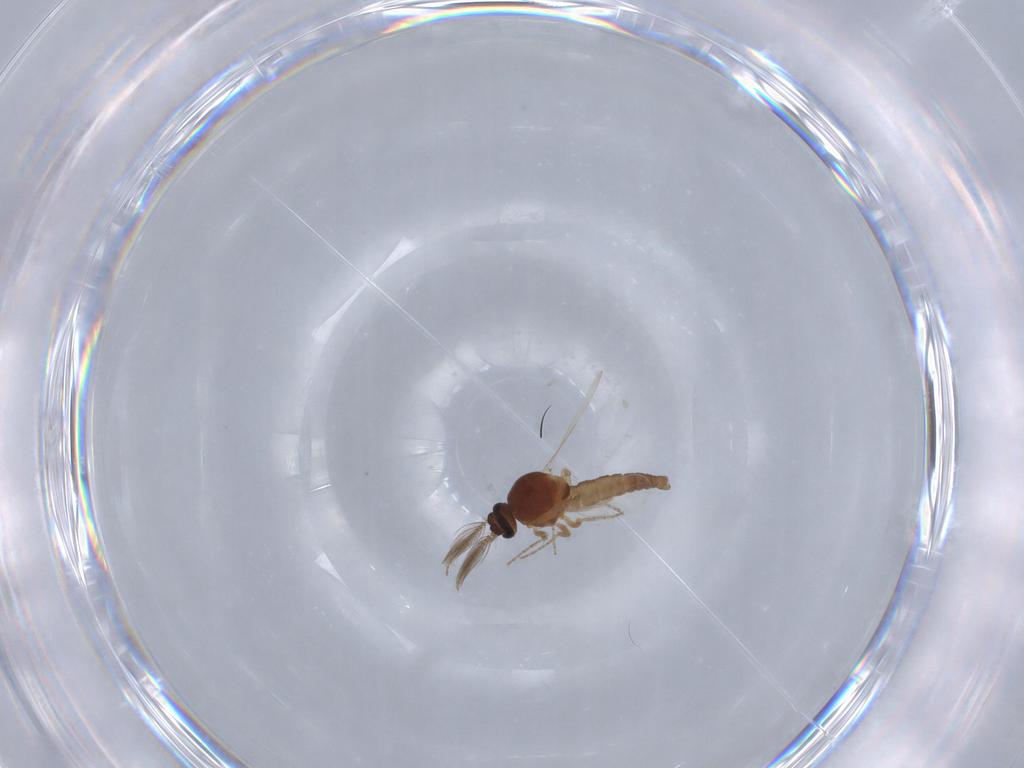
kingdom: Animalia
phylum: Arthropoda
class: Insecta
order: Diptera
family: Ceratopogonidae
